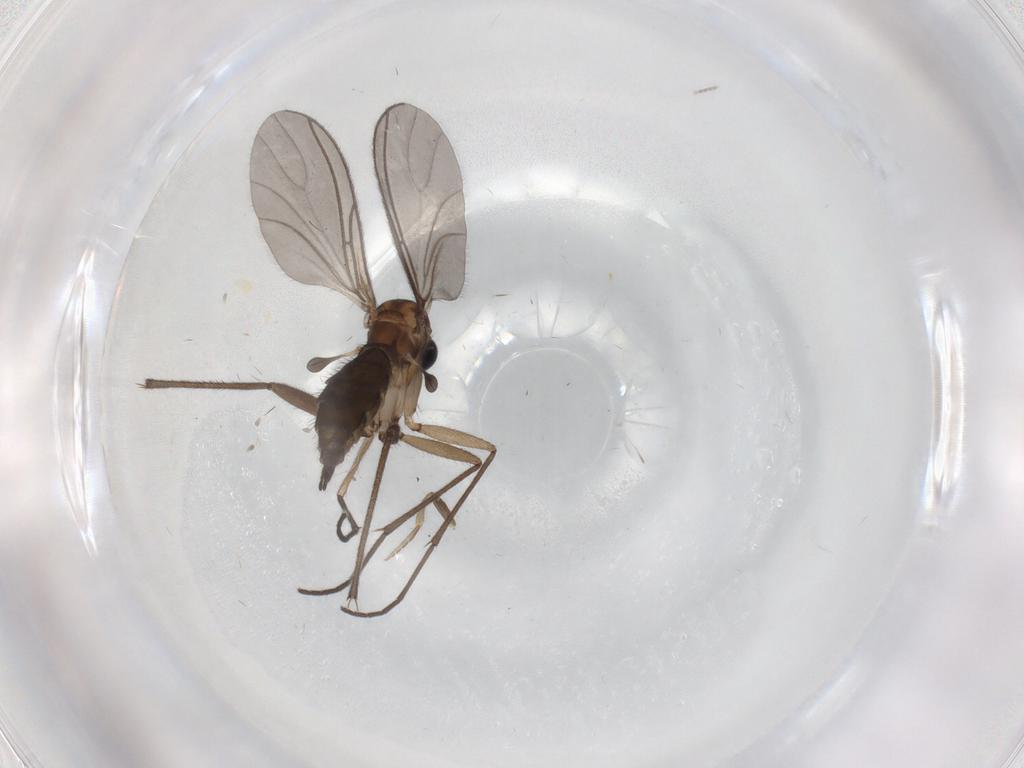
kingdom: Animalia
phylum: Arthropoda
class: Insecta
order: Diptera
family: Sciaridae
